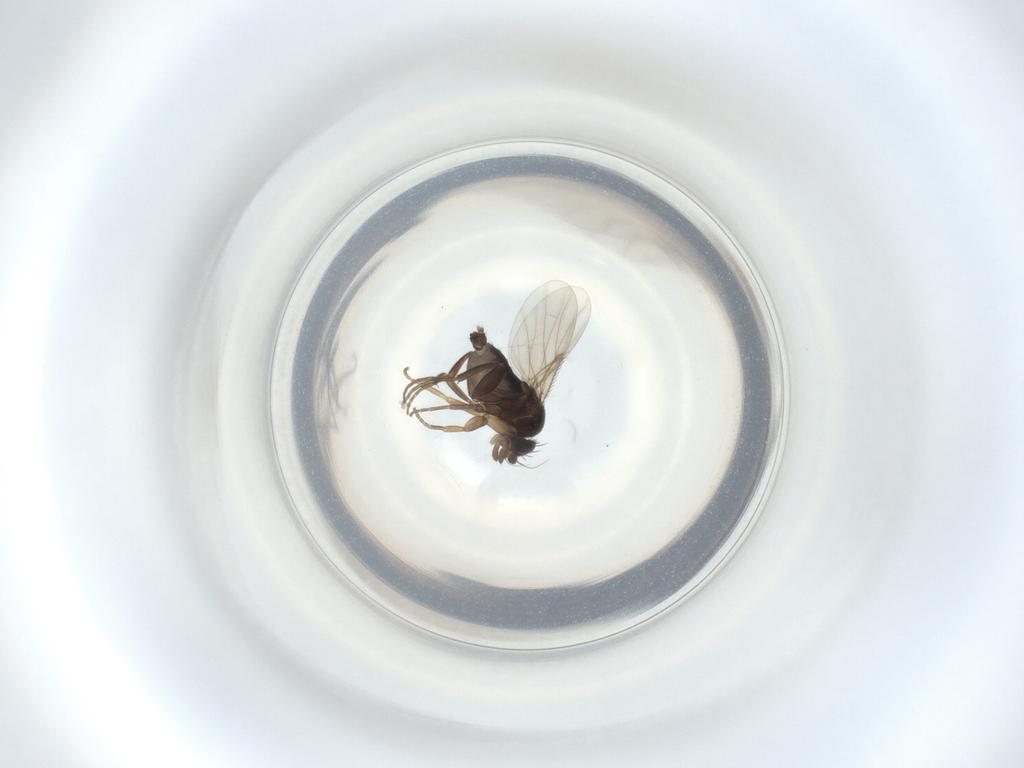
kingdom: Animalia
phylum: Arthropoda
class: Insecta
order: Diptera
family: Phoridae
